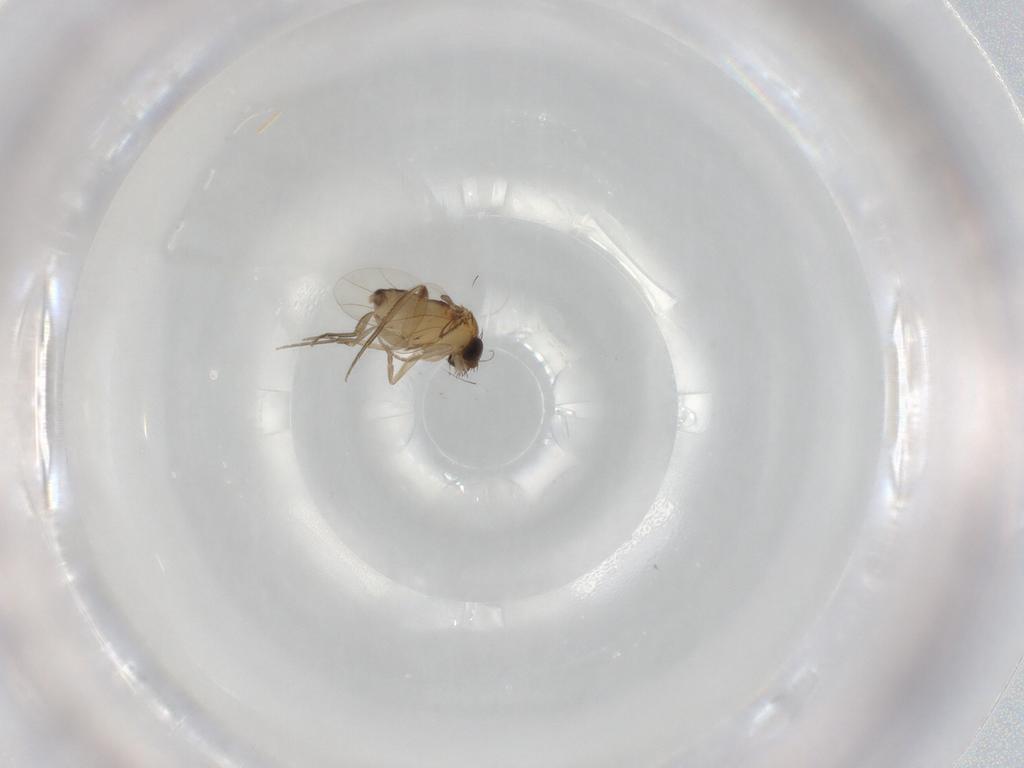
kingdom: Animalia
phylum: Arthropoda
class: Insecta
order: Diptera
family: Phoridae
